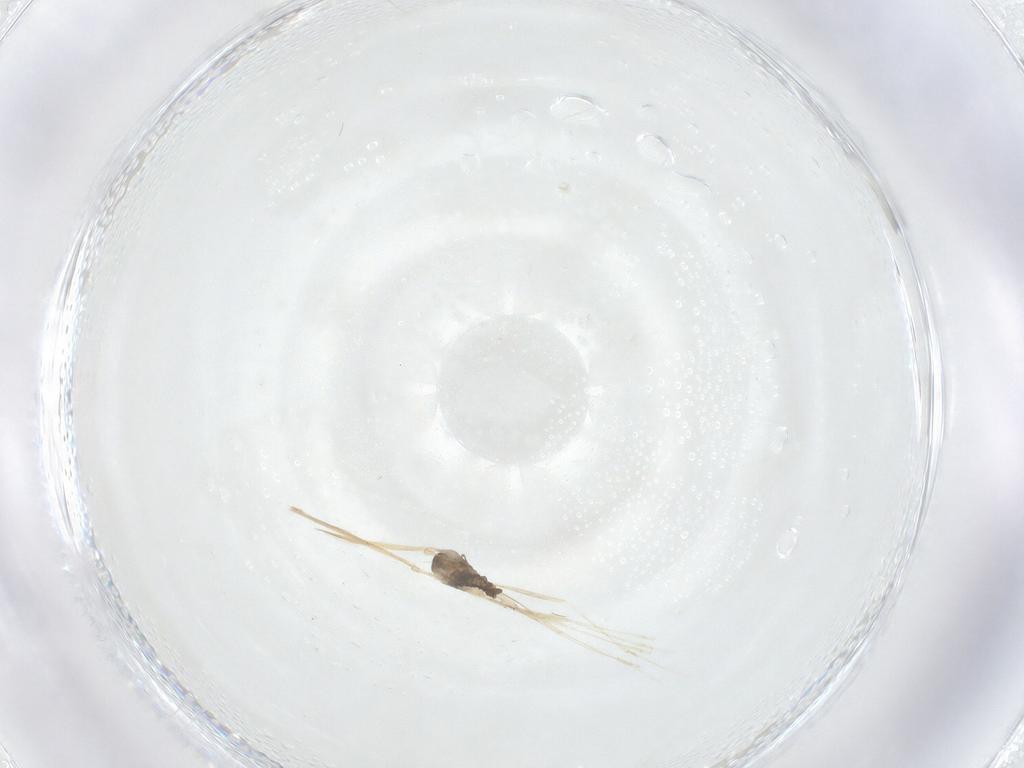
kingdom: Animalia
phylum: Arthropoda
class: Insecta
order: Diptera
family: Cecidomyiidae
